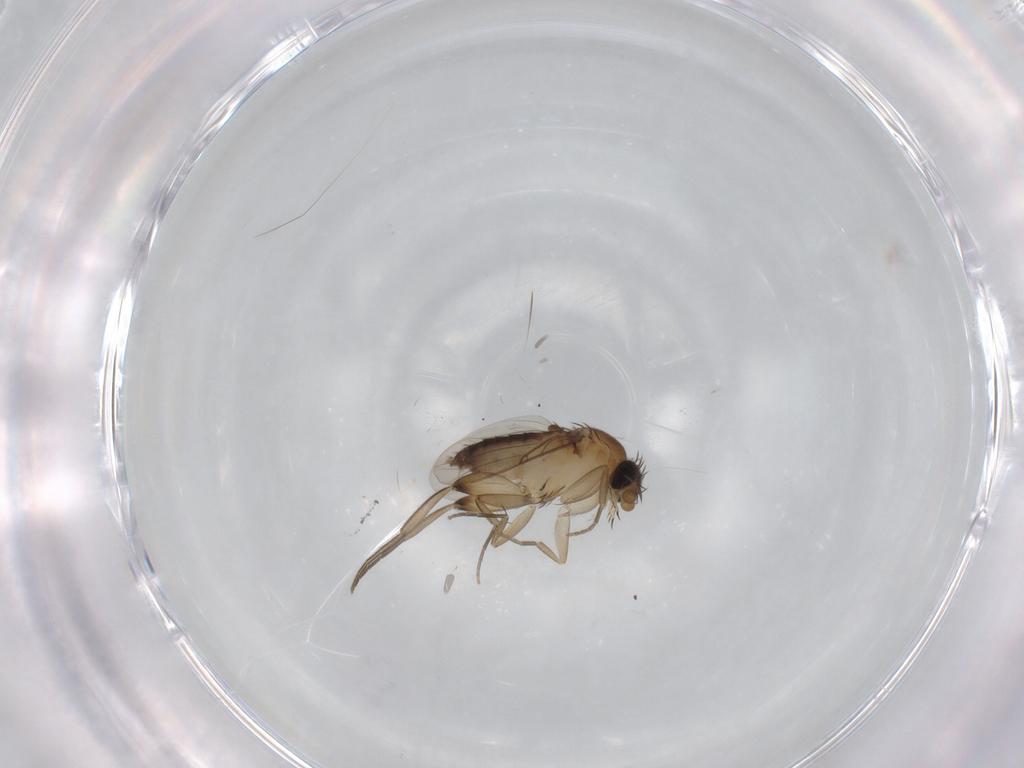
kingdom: Animalia
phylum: Arthropoda
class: Insecta
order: Diptera
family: Phoridae
